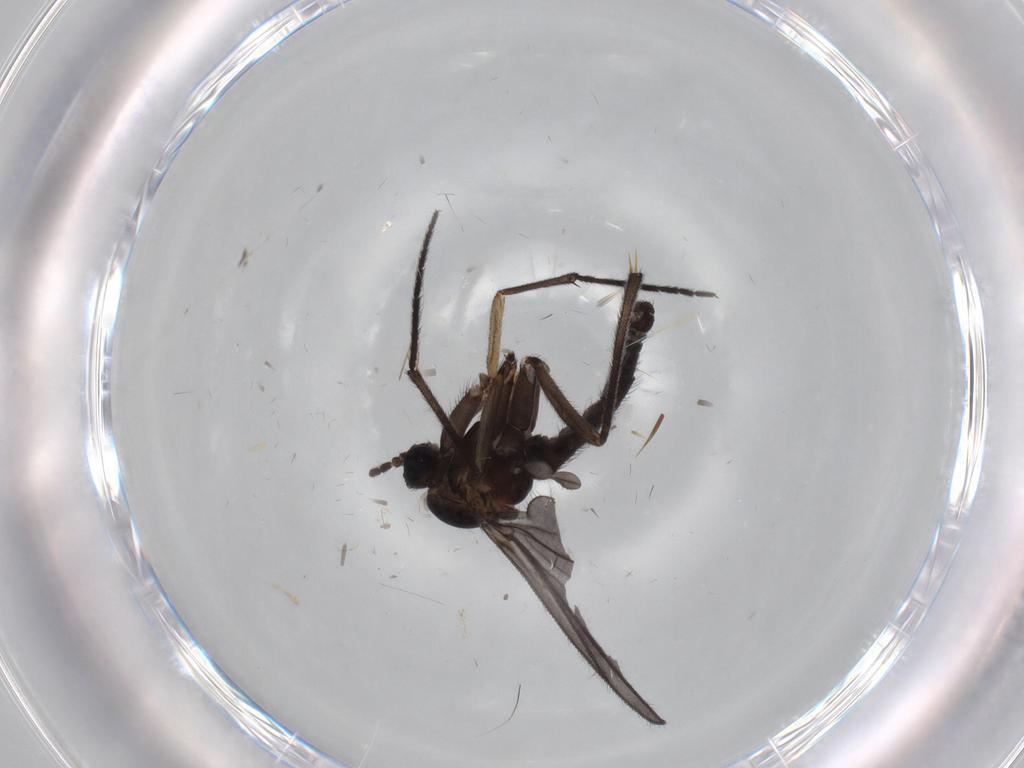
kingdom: Animalia
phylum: Arthropoda
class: Insecta
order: Diptera
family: Sciaridae
